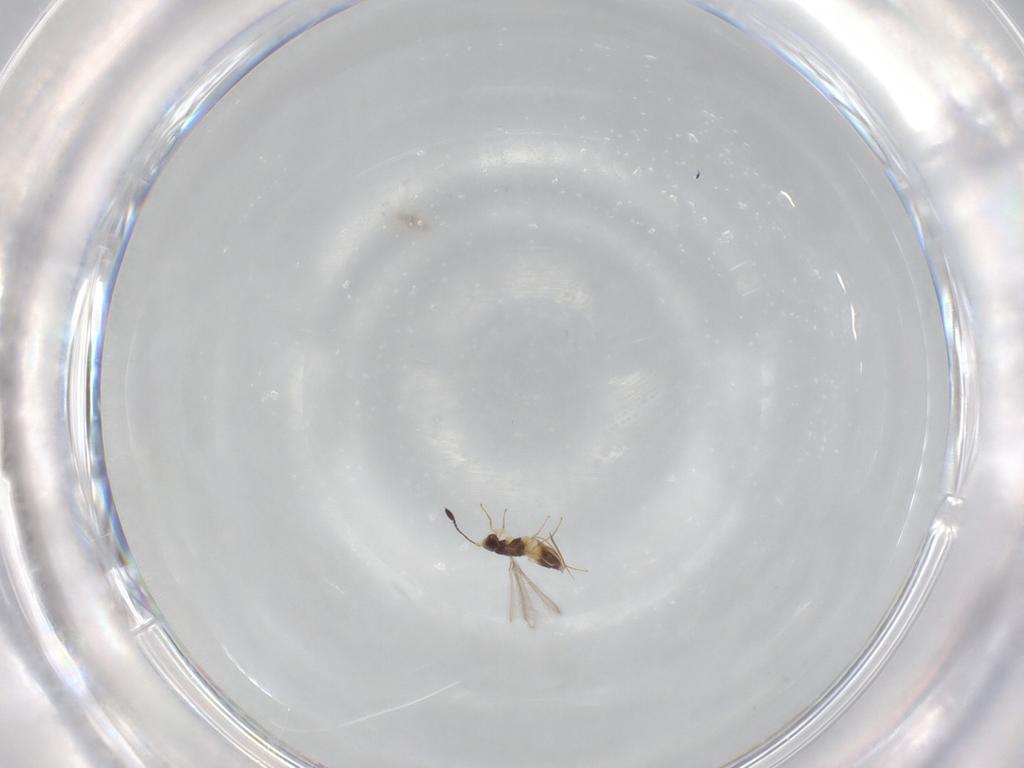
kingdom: Animalia
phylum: Arthropoda
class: Insecta
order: Hymenoptera
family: Mymaridae
